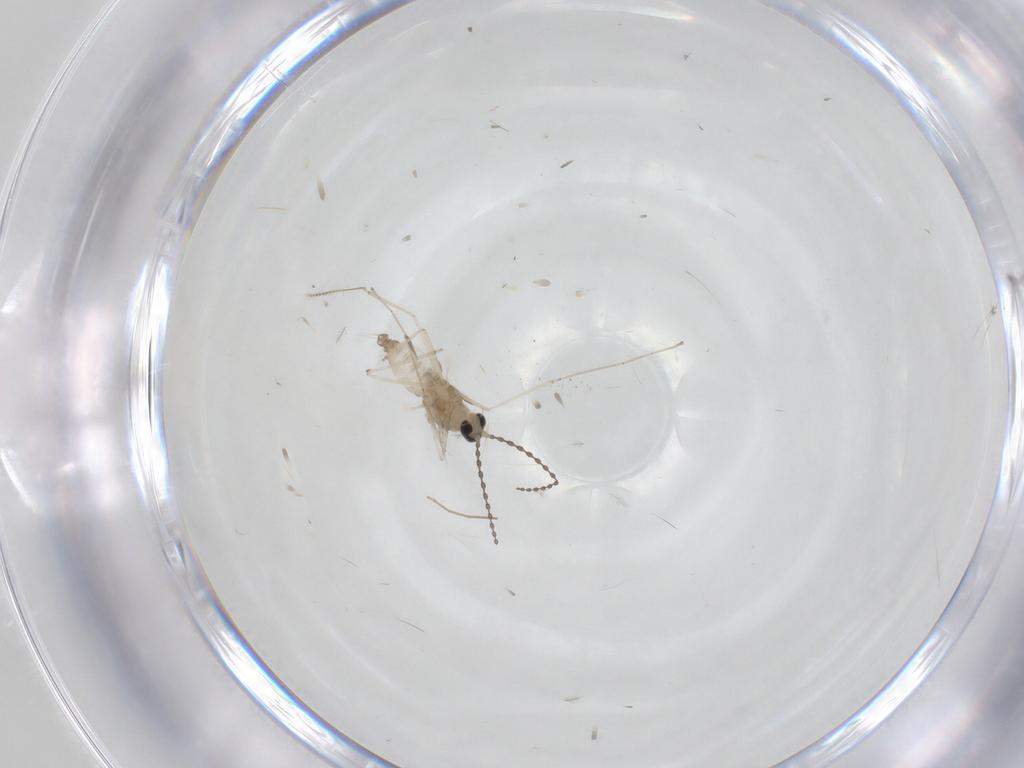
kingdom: Animalia
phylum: Arthropoda
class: Insecta
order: Diptera
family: Chironomidae
